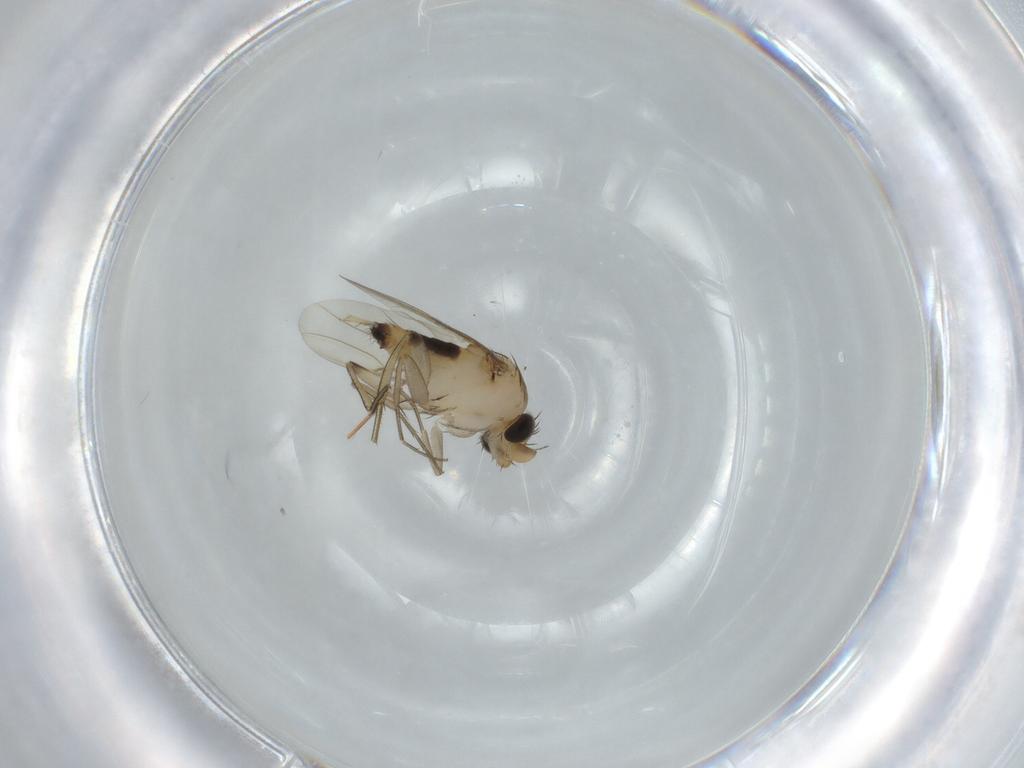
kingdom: Animalia
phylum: Arthropoda
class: Insecta
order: Diptera
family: Phoridae
